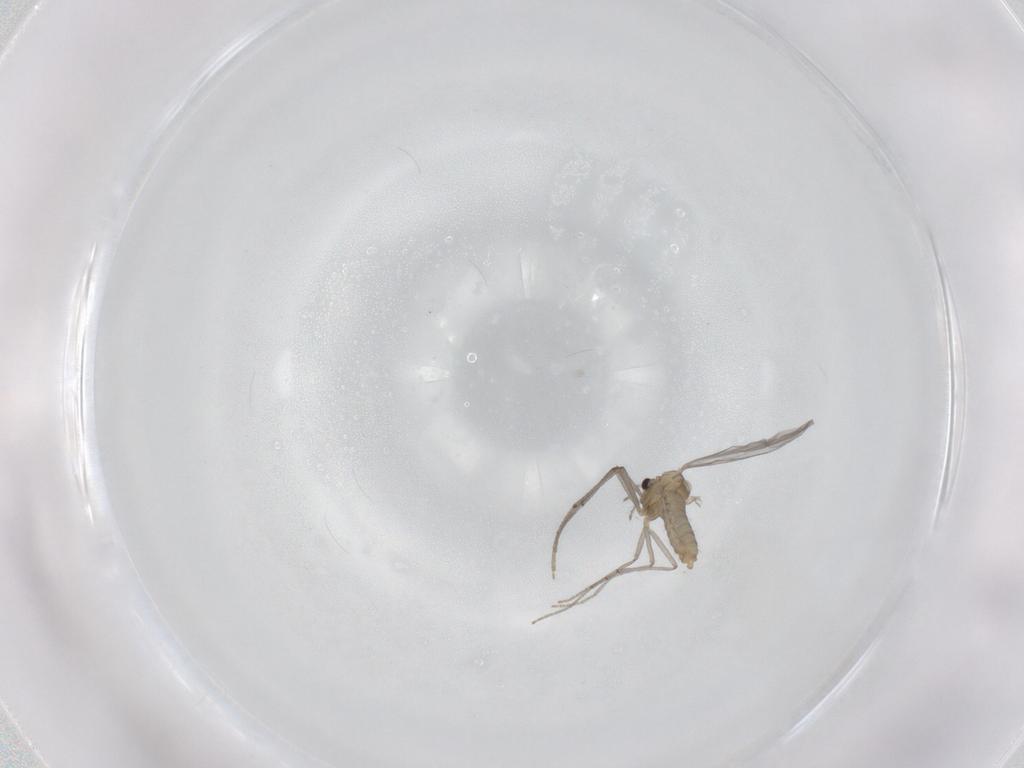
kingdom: Animalia
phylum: Arthropoda
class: Insecta
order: Diptera
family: Chironomidae
